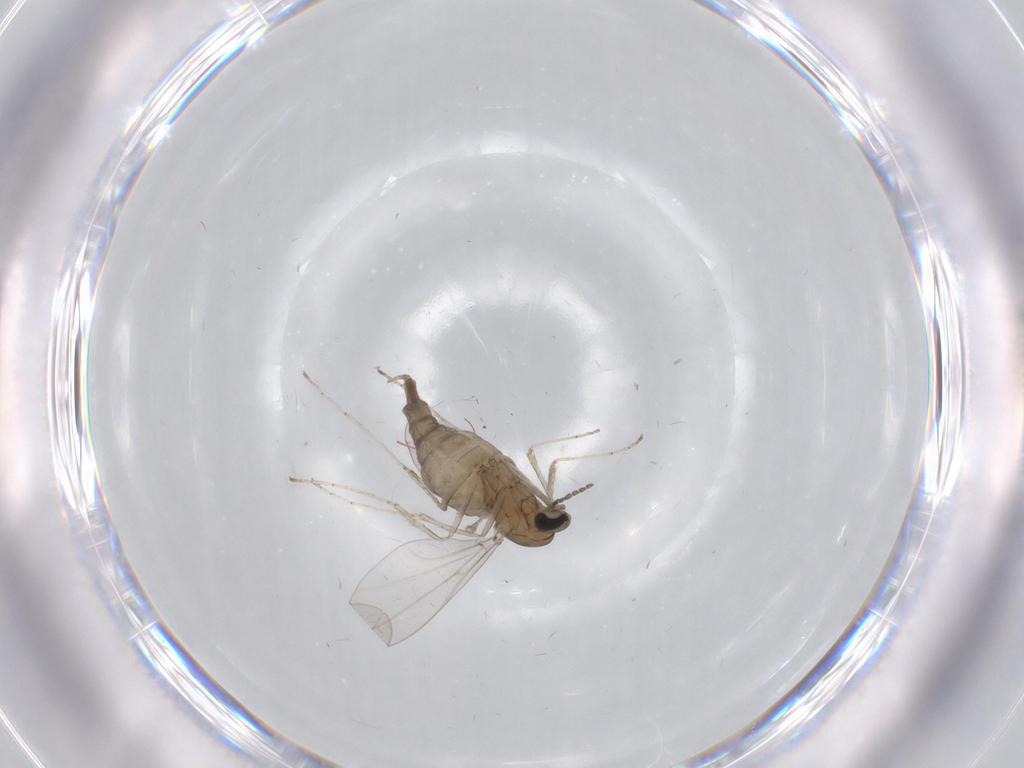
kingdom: Animalia
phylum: Arthropoda
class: Insecta
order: Diptera
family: Cecidomyiidae
